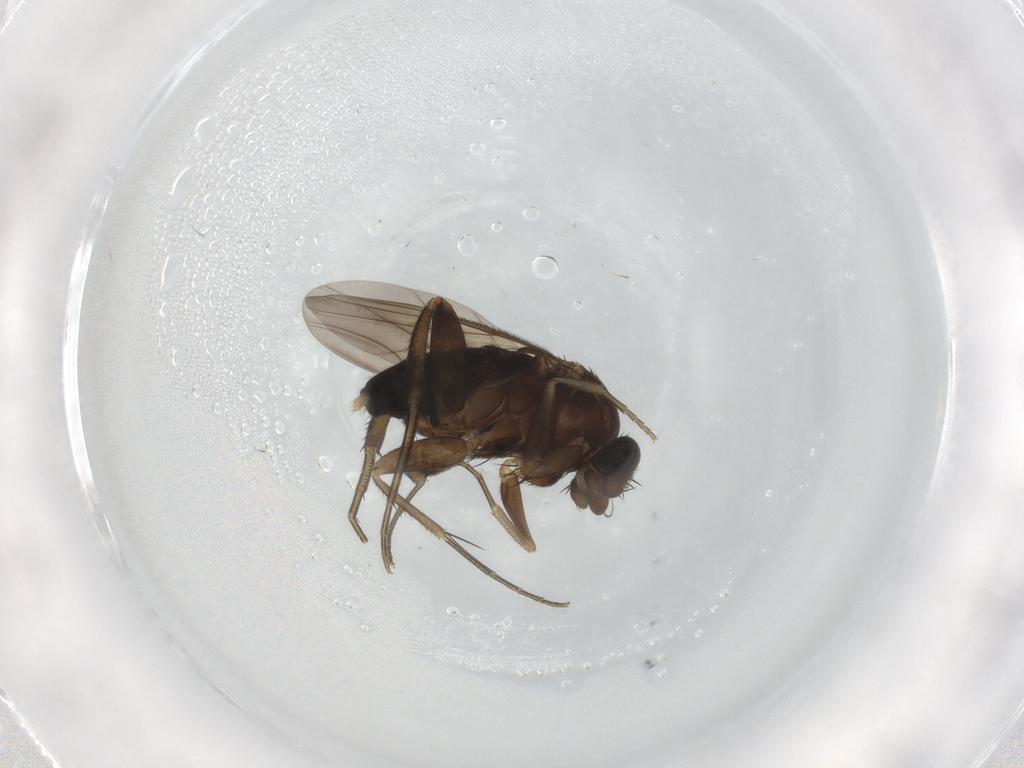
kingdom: Animalia
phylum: Arthropoda
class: Insecta
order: Diptera
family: Phoridae
